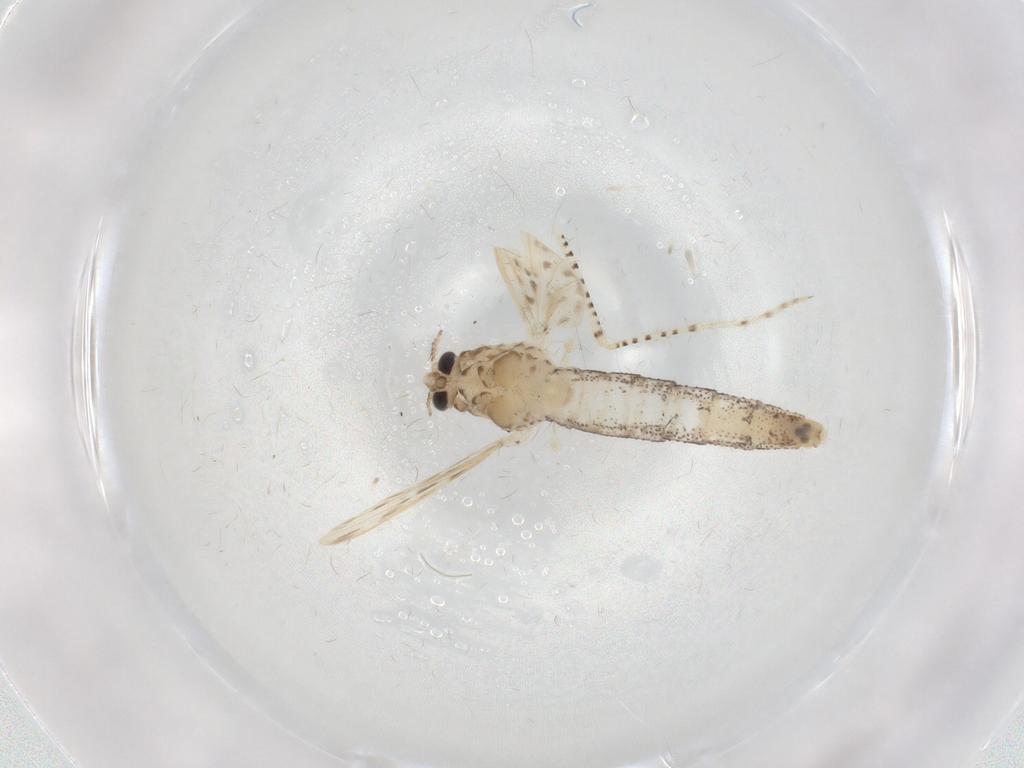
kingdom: Animalia
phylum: Arthropoda
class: Insecta
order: Diptera
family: Chaoboridae
